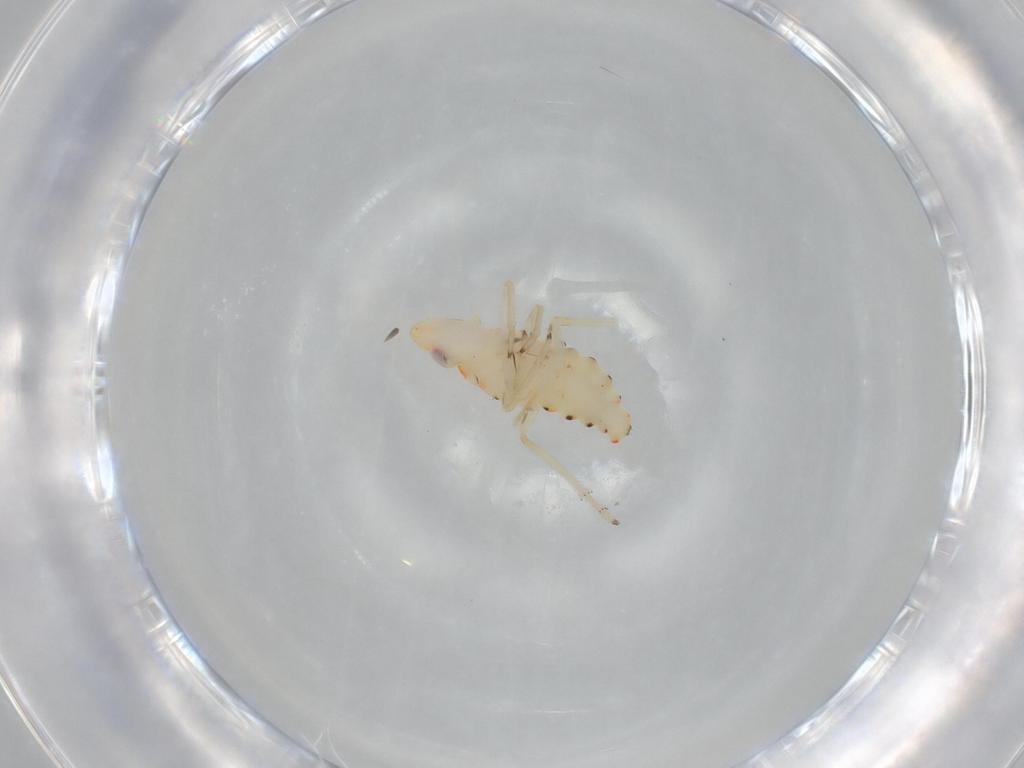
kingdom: Animalia
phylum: Arthropoda
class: Insecta
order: Hemiptera
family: Tropiduchidae
